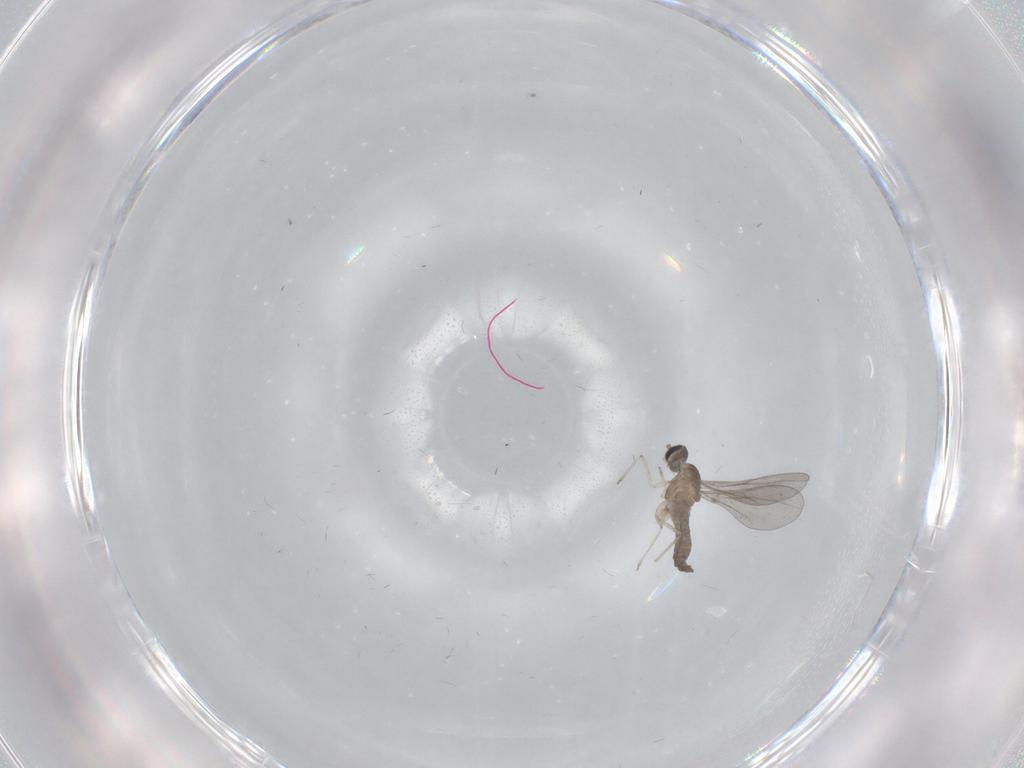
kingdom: Animalia
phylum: Arthropoda
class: Insecta
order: Diptera
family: Cecidomyiidae
